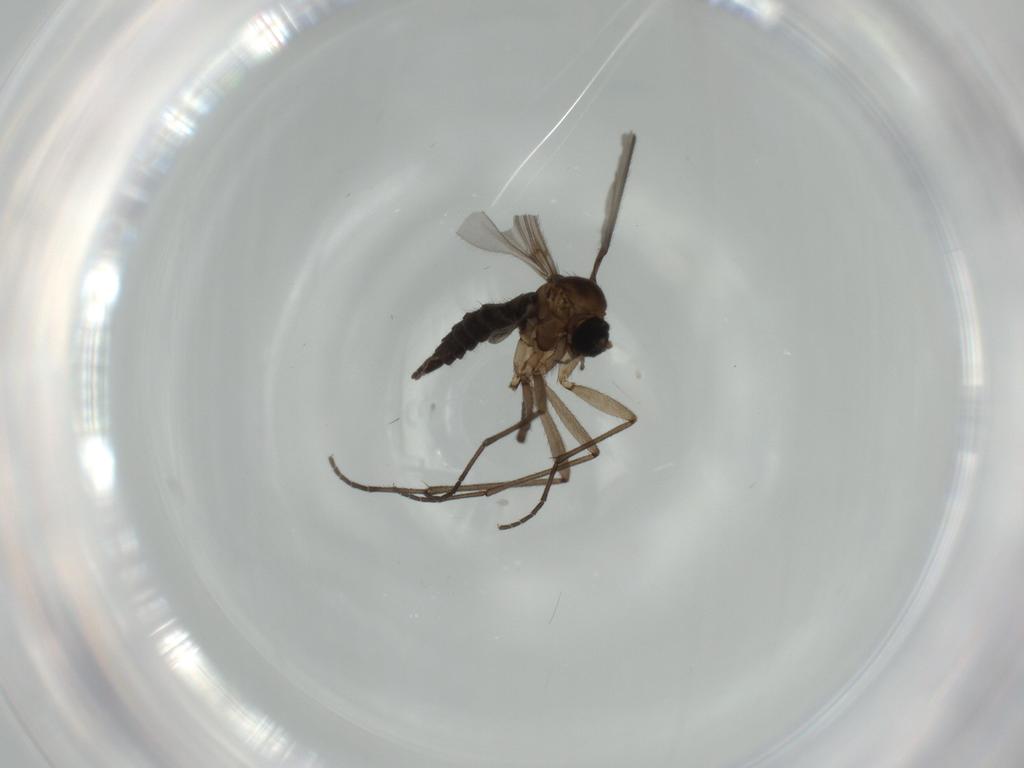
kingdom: Animalia
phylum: Arthropoda
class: Insecta
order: Diptera
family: Sciaridae
